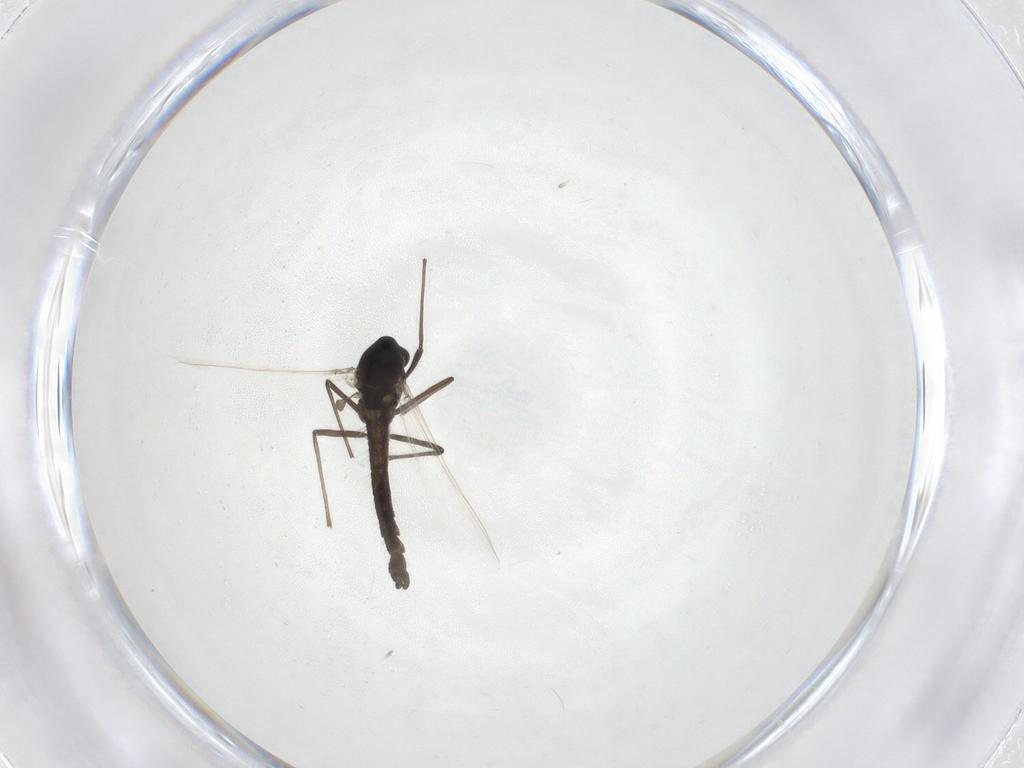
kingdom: Animalia
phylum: Arthropoda
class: Insecta
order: Diptera
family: Chironomidae
